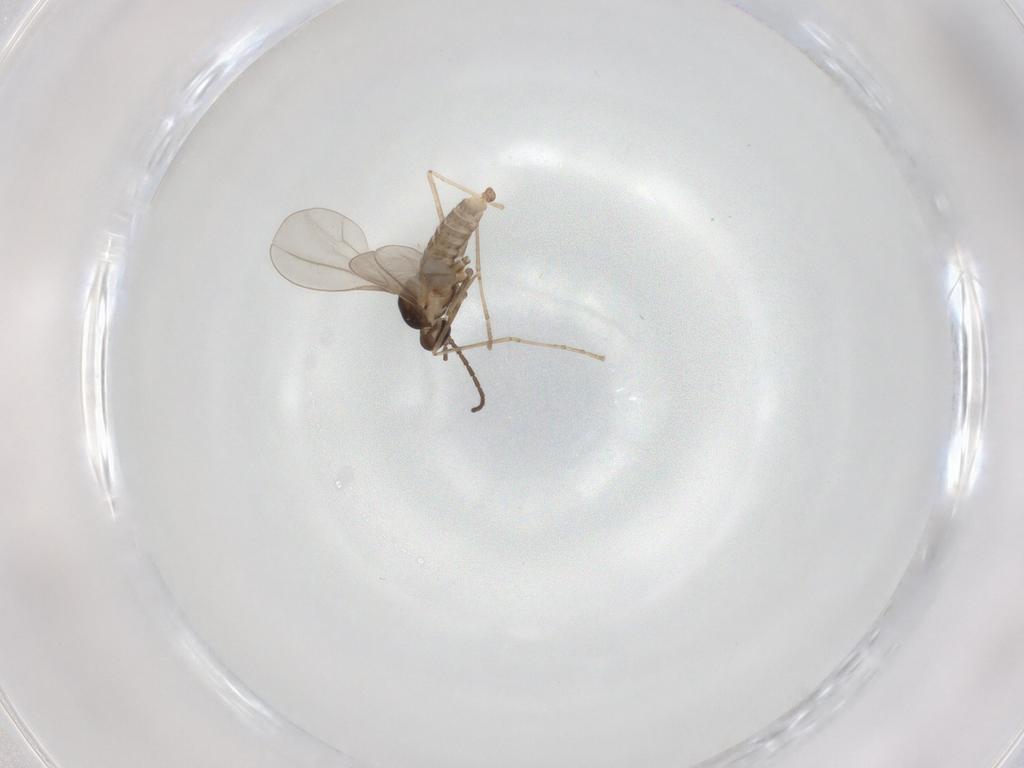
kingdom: Animalia
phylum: Arthropoda
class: Insecta
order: Diptera
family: Cecidomyiidae
